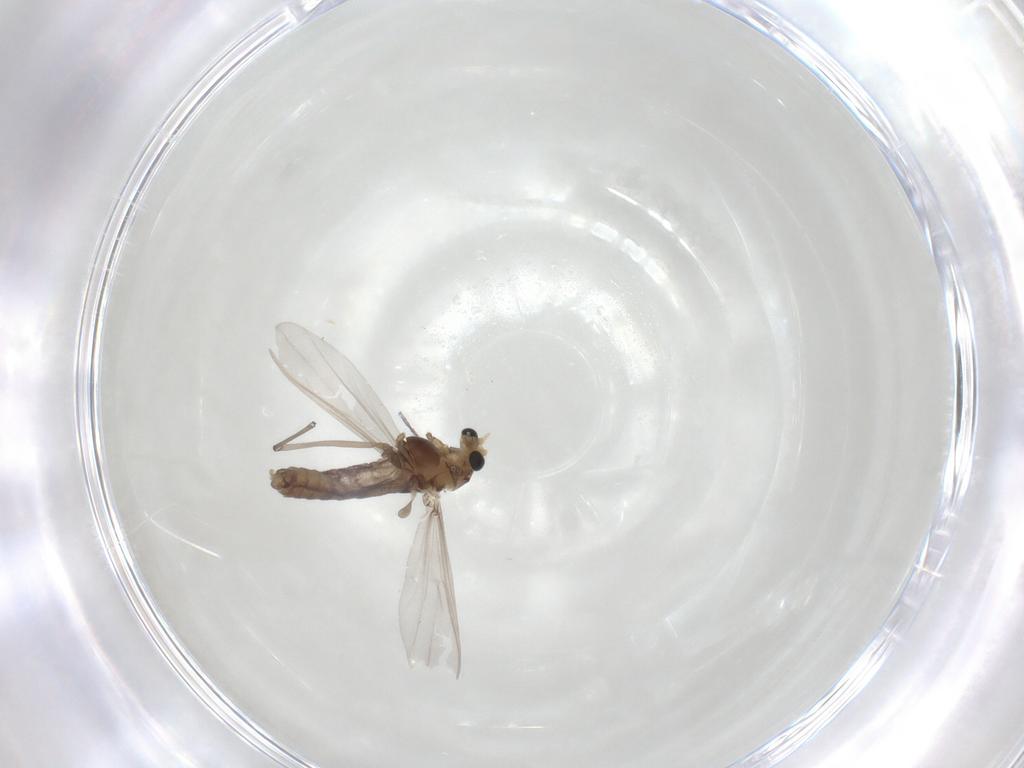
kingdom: Animalia
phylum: Arthropoda
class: Insecta
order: Diptera
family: Chironomidae
